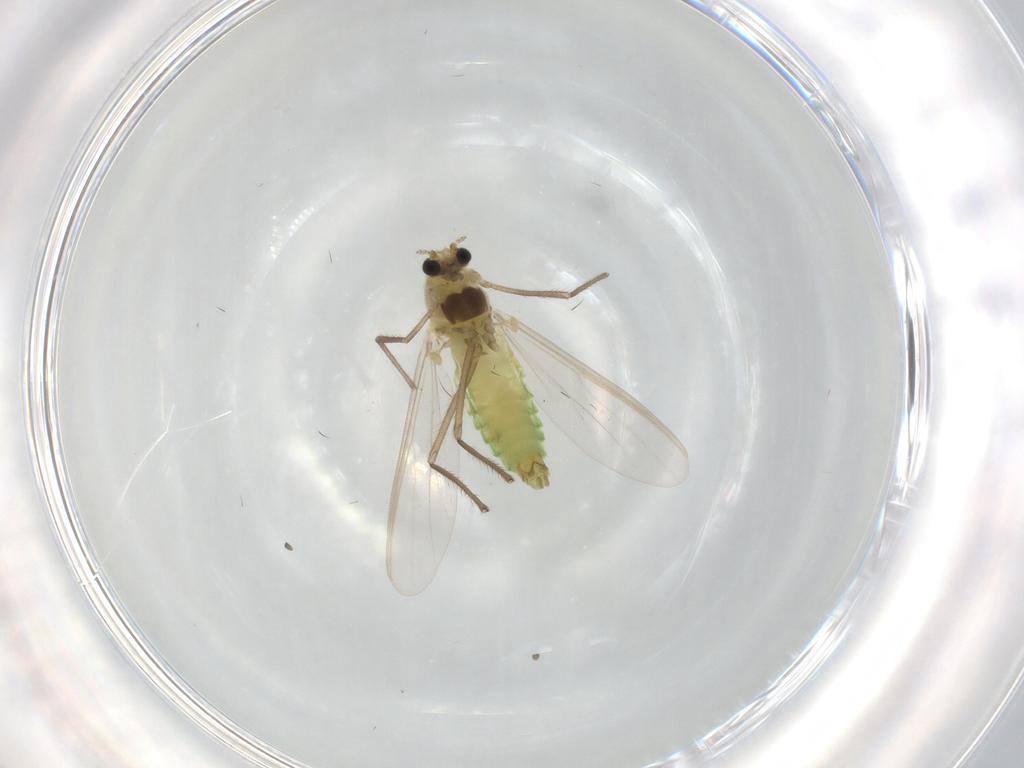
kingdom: Animalia
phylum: Arthropoda
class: Insecta
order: Diptera
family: Chironomidae
